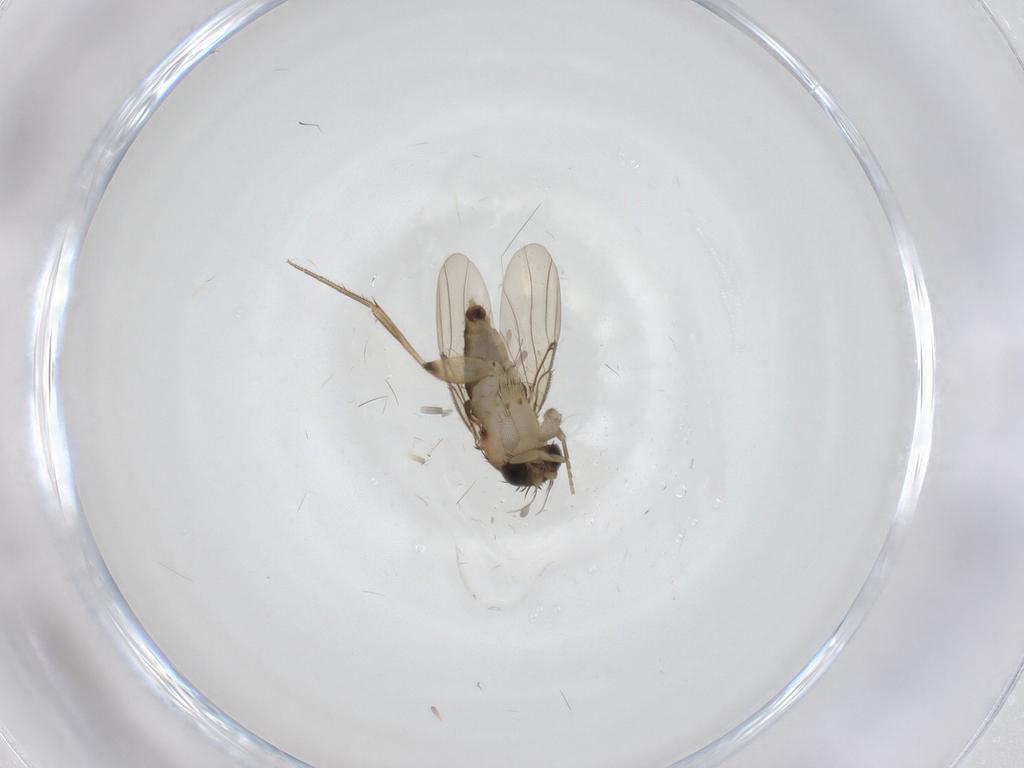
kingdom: Animalia
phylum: Arthropoda
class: Insecta
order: Diptera
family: Phoridae
